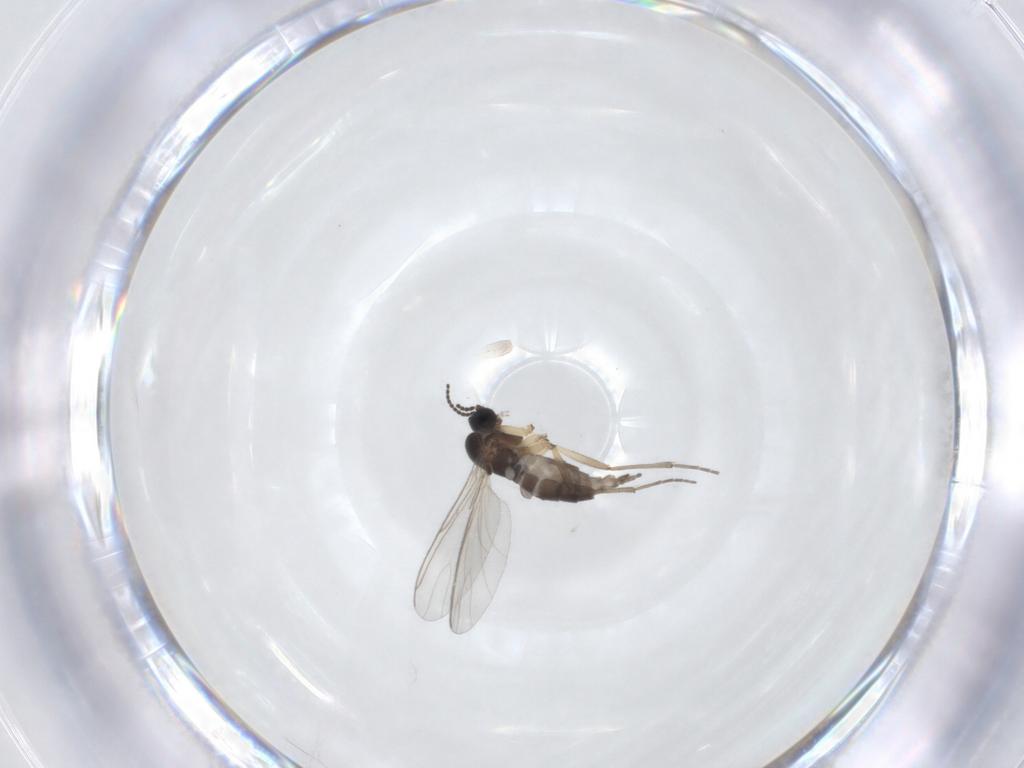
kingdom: Animalia
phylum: Arthropoda
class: Insecta
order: Diptera
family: Sciaridae
